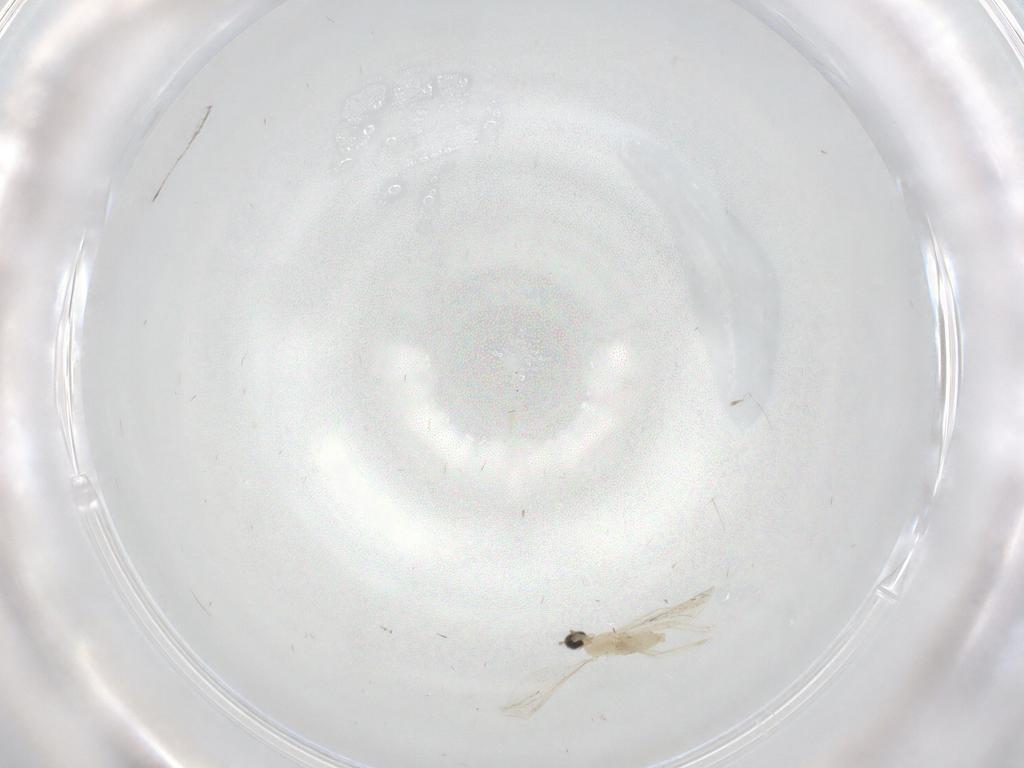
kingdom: Animalia
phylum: Arthropoda
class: Insecta
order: Diptera
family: Cecidomyiidae
